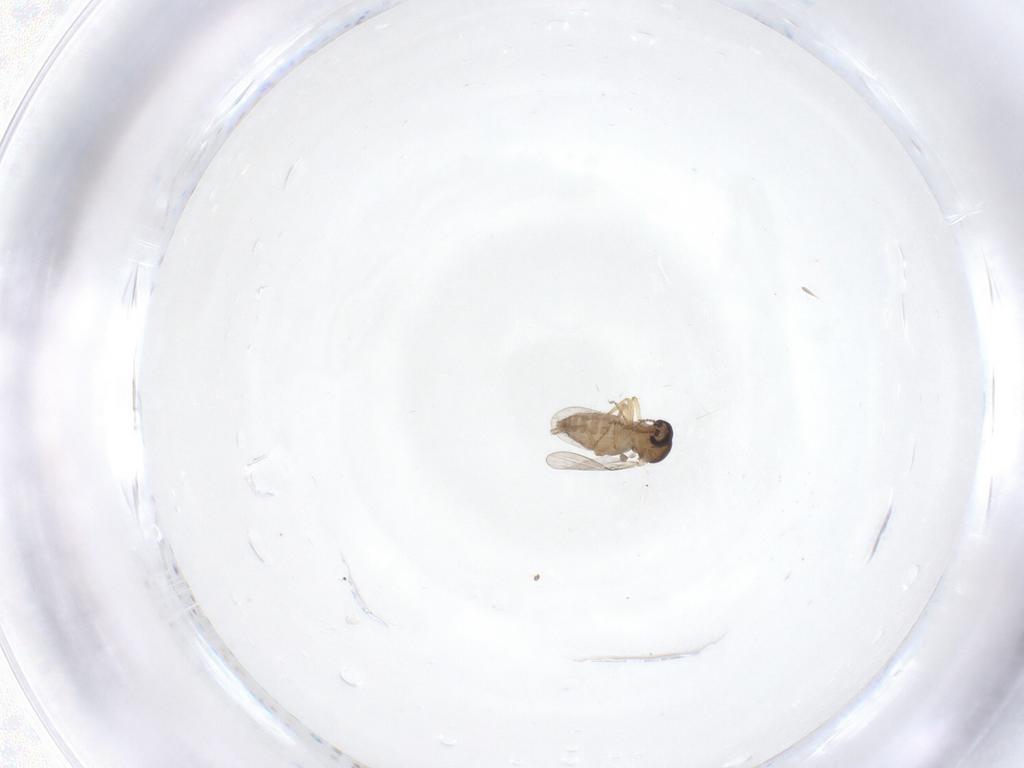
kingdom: Animalia
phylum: Arthropoda
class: Insecta
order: Diptera
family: Ceratopogonidae
